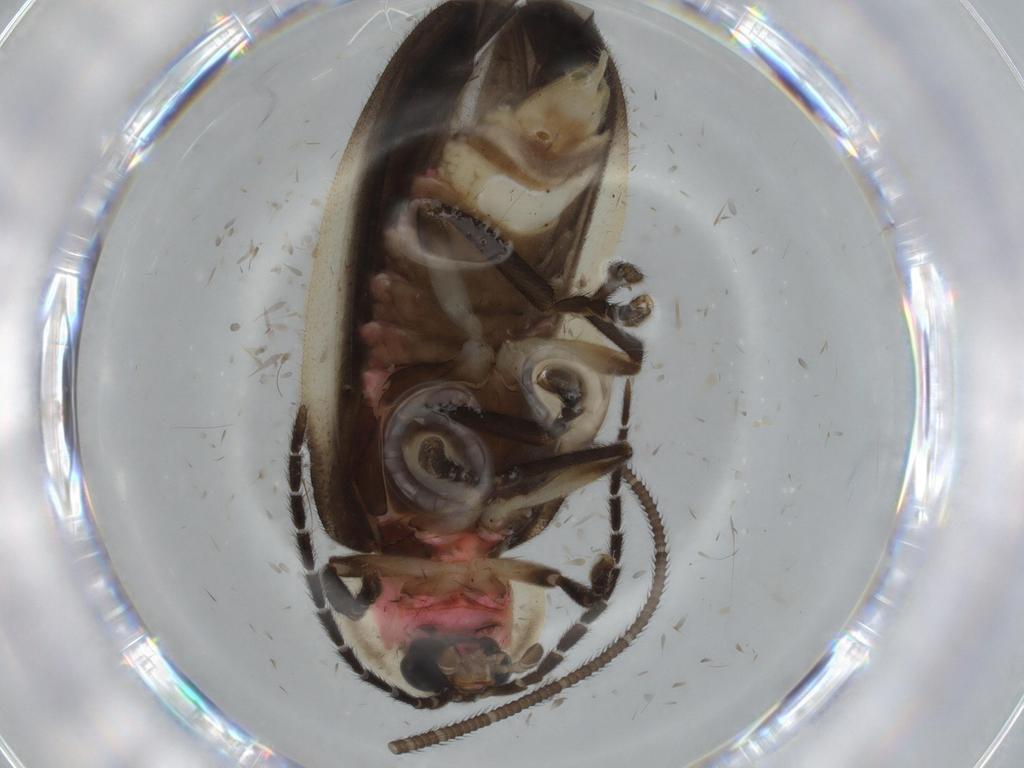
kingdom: Animalia
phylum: Arthropoda
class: Insecta
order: Coleoptera
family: Lampyridae
